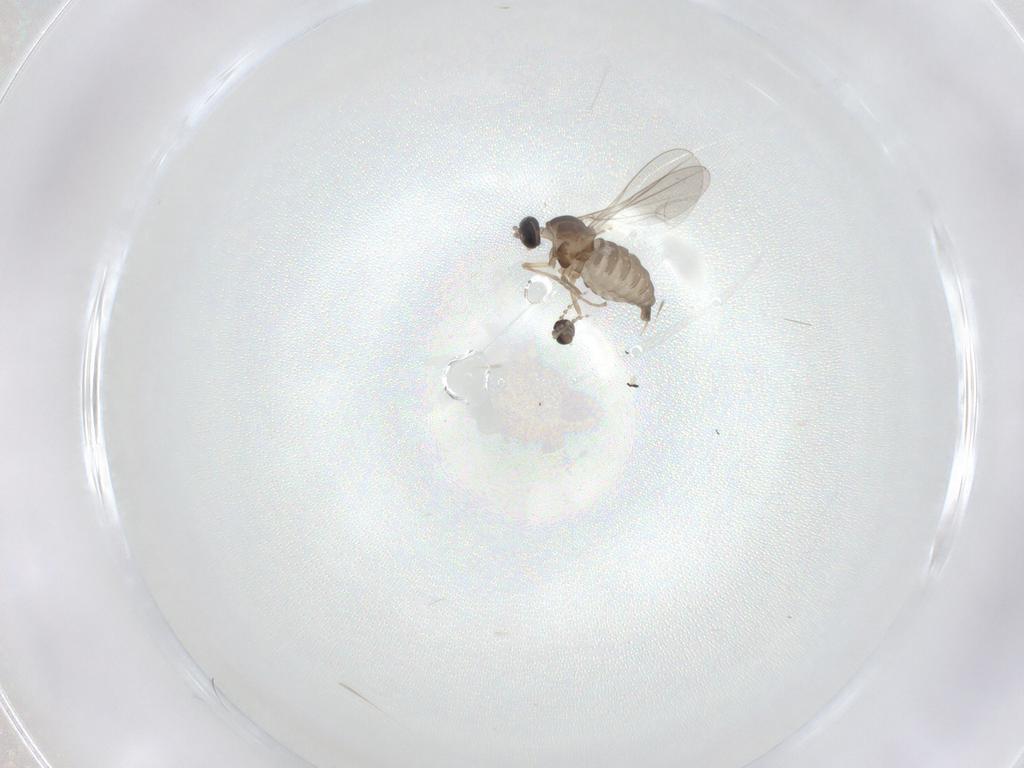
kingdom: Animalia
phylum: Arthropoda
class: Insecta
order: Diptera
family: Cecidomyiidae
